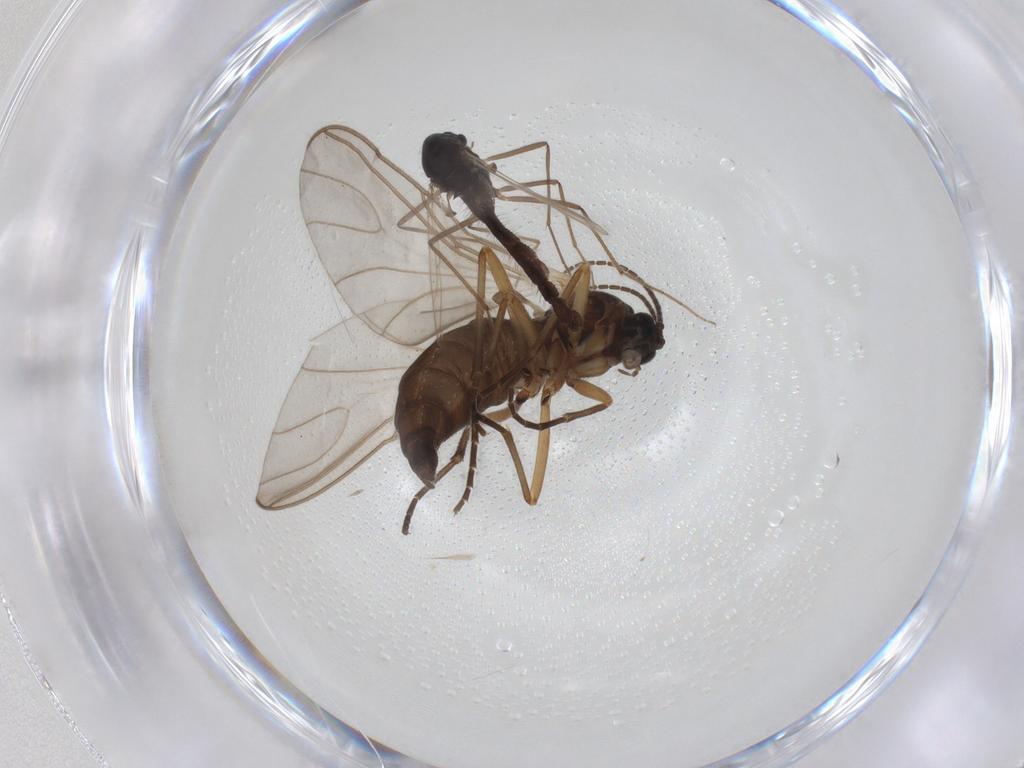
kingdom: Animalia
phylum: Arthropoda
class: Insecta
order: Diptera
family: Chironomidae
